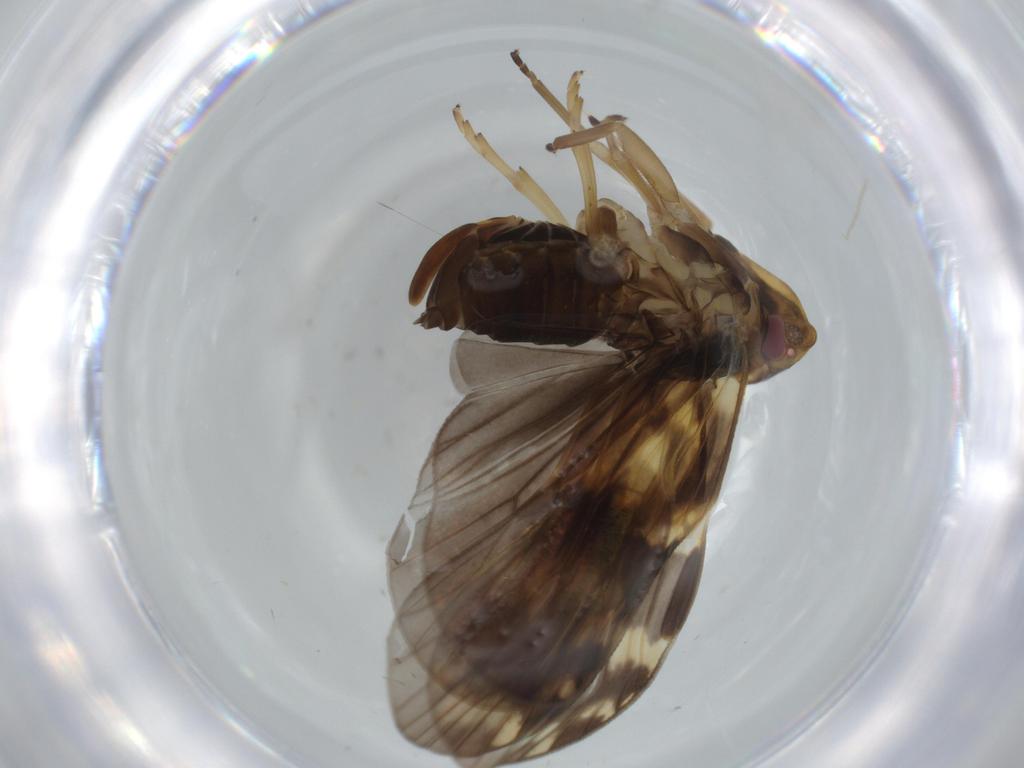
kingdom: Animalia
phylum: Arthropoda
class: Insecta
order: Hemiptera
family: Cixiidae
